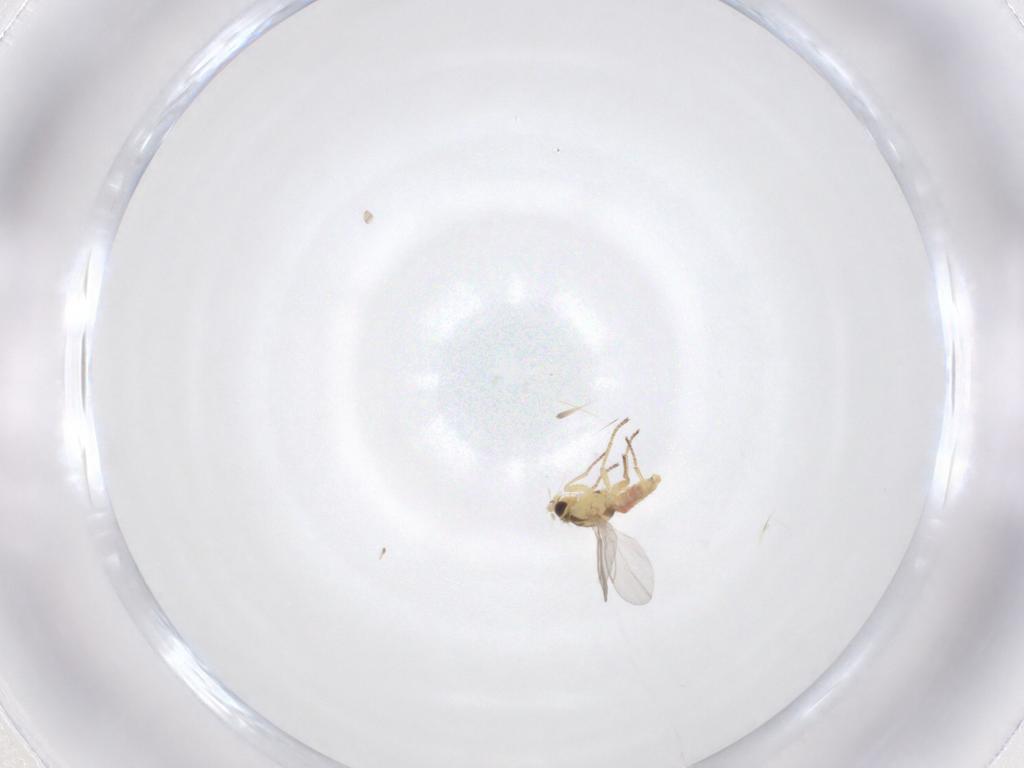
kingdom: Animalia
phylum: Arthropoda
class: Insecta
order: Diptera
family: Agromyzidae
